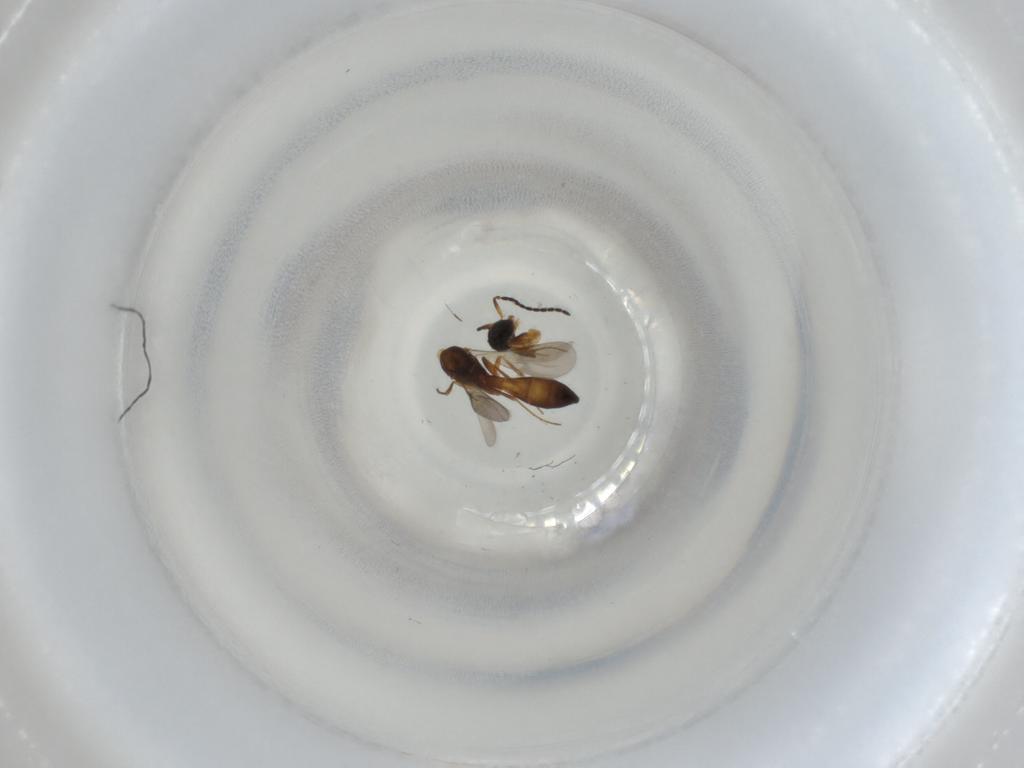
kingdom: Animalia
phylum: Arthropoda
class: Insecta
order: Hymenoptera
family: Formicidae
